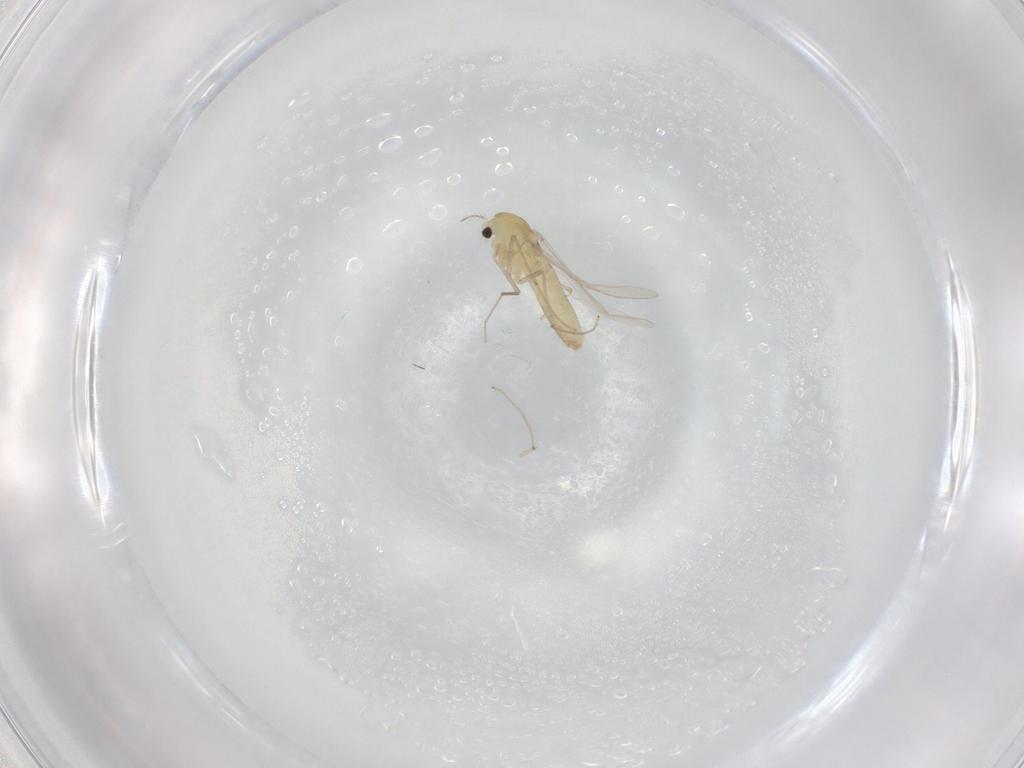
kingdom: Animalia
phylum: Arthropoda
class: Insecta
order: Diptera
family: Chironomidae
